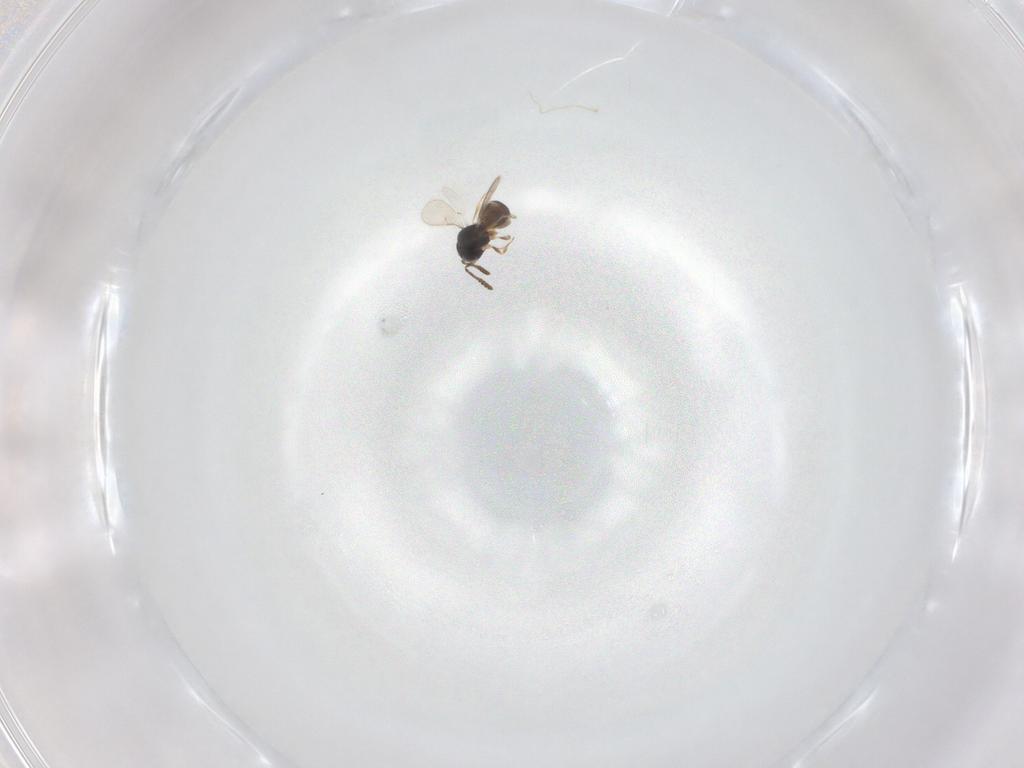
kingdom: Animalia
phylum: Arthropoda
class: Insecta
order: Hymenoptera
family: Scelionidae
